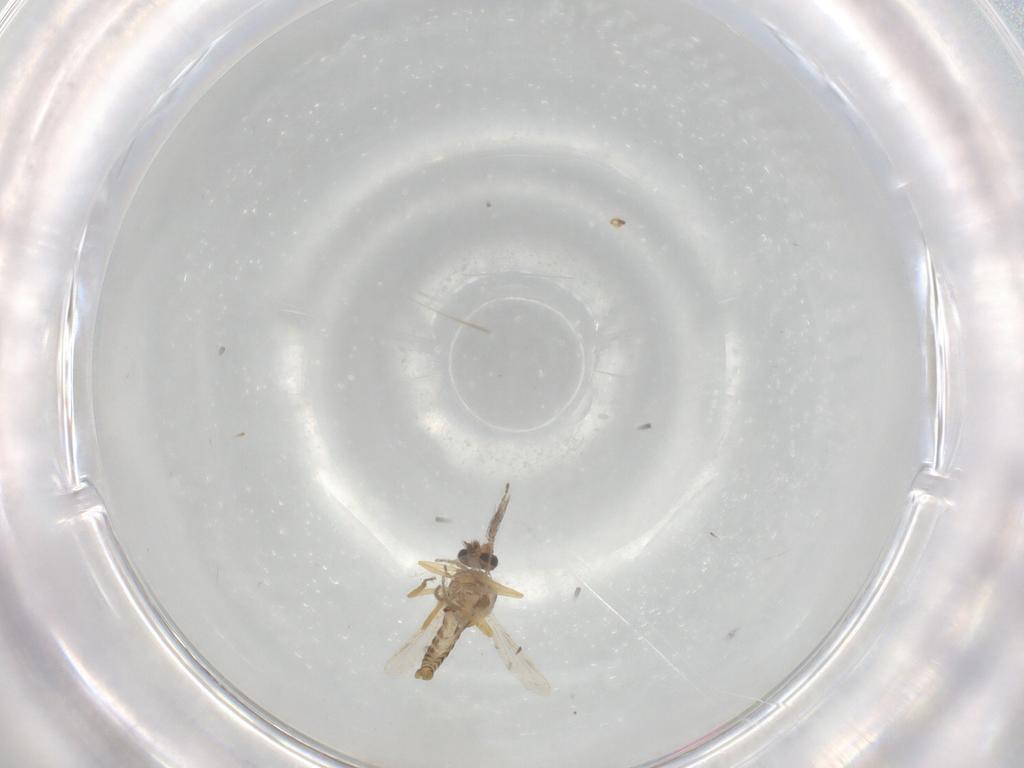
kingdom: Animalia
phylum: Arthropoda
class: Insecta
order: Diptera
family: Ceratopogonidae
